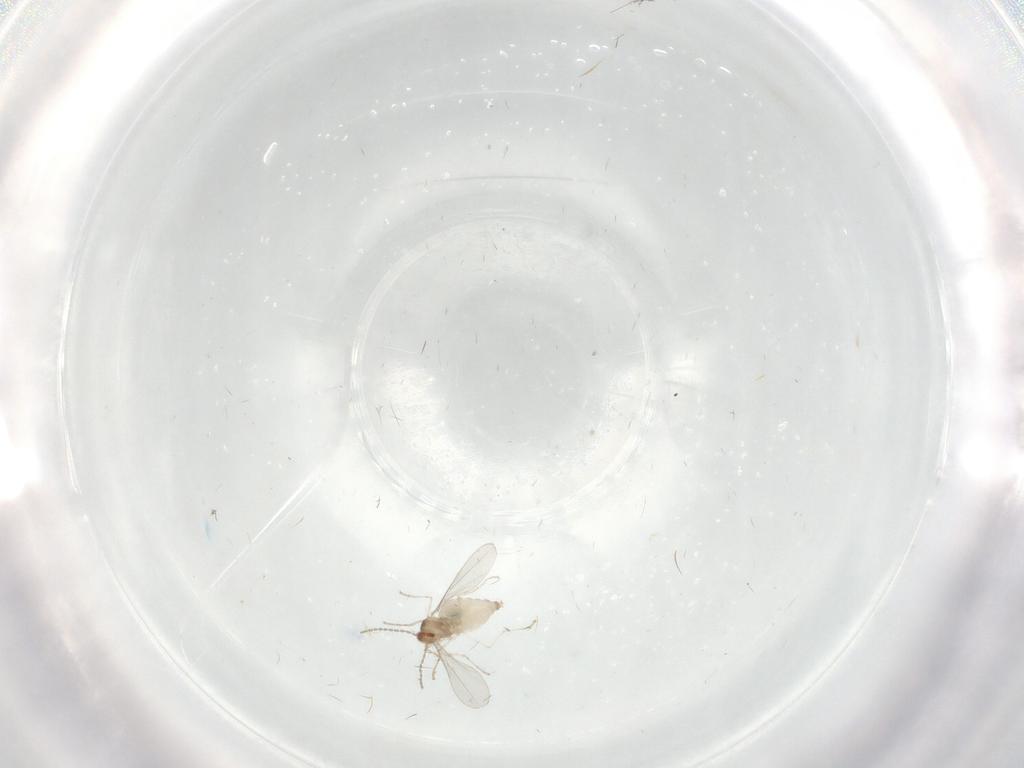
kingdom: Animalia
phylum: Arthropoda
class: Insecta
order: Diptera
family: Cecidomyiidae
